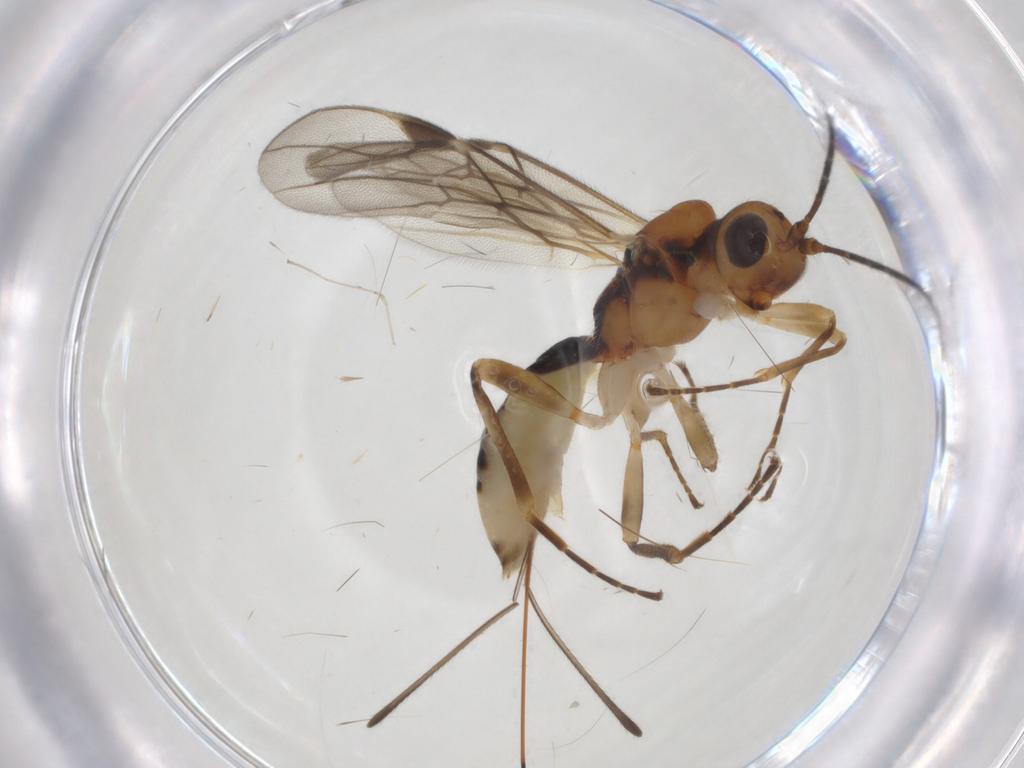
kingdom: Animalia
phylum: Arthropoda
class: Insecta
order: Hymenoptera
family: Braconidae
